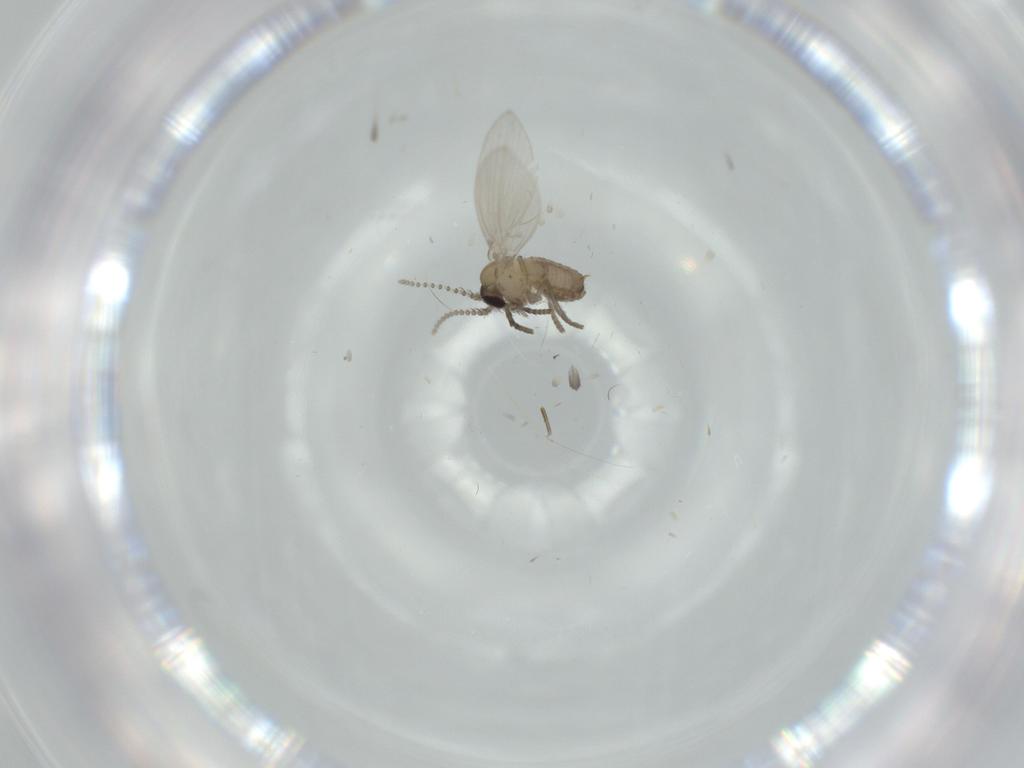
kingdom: Animalia
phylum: Arthropoda
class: Insecta
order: Diptera
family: Phoridae
